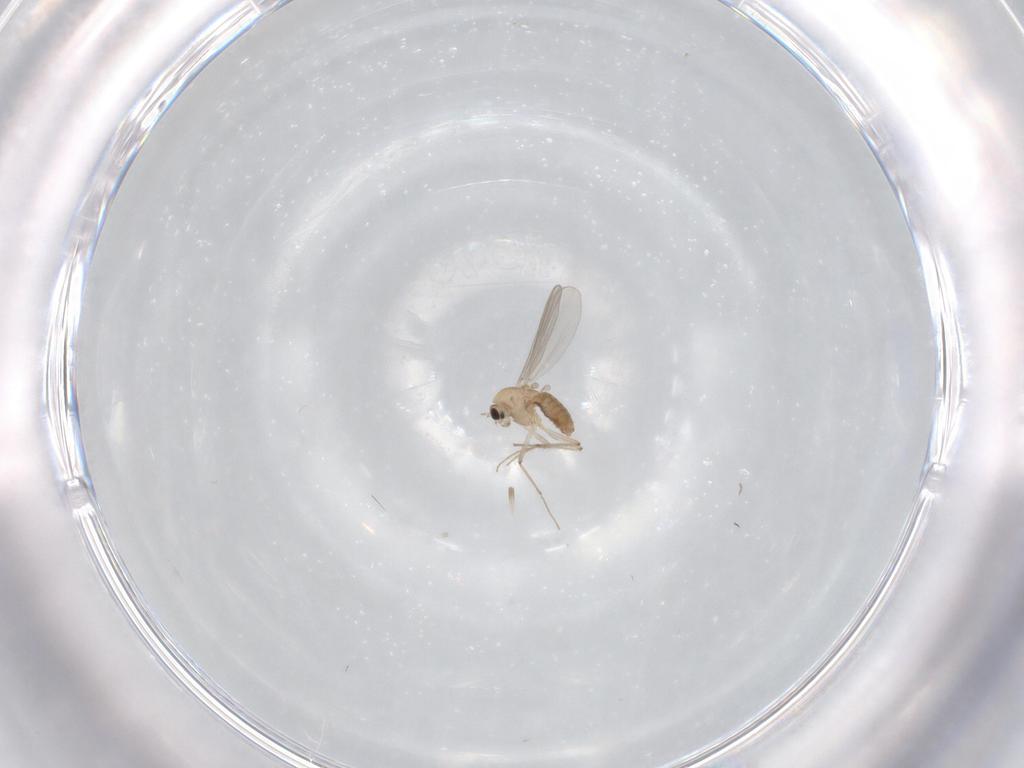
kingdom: Animalia
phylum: Arthropoda
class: Insecta
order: Diptera
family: Chironomidae
